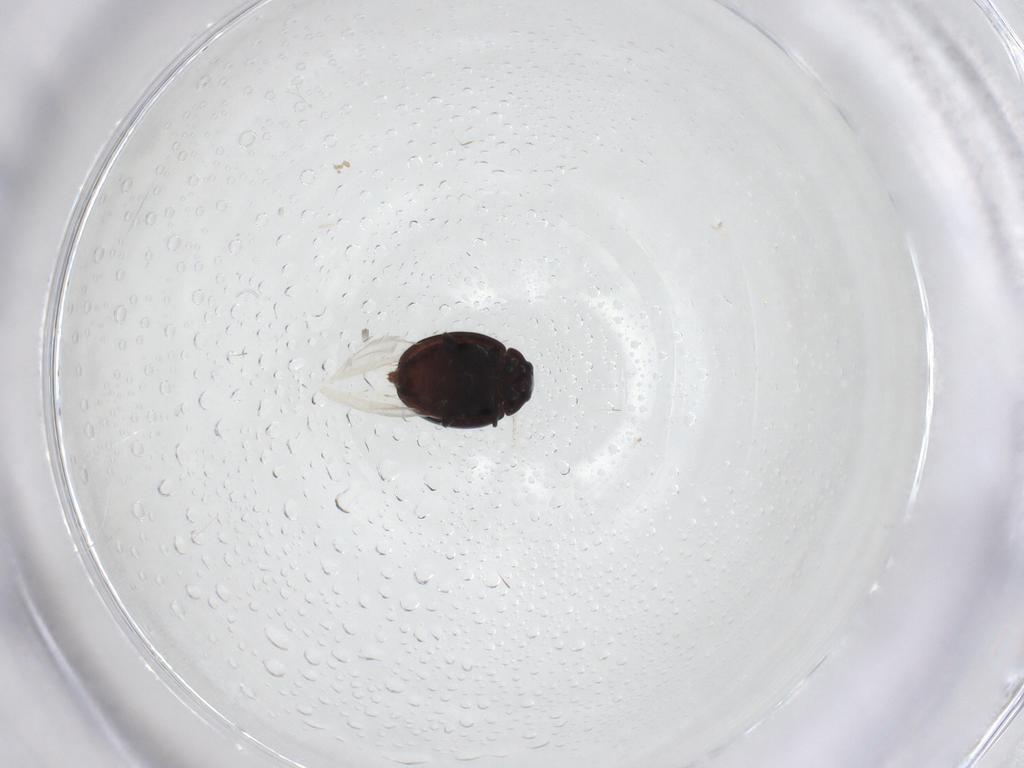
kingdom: Animalia
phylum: Arthropoda
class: Insecta
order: Coleoptera
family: Coccinellidae
